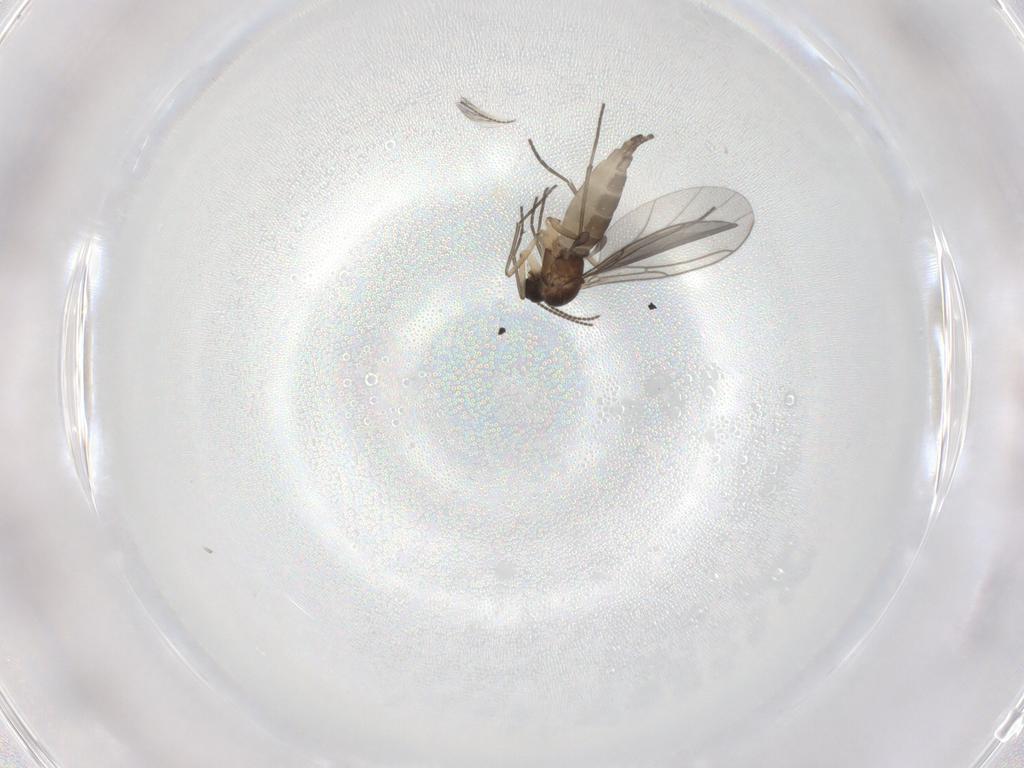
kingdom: Animalia
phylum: Arthropoda
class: Insecta
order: Diptera
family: Sciaridae
